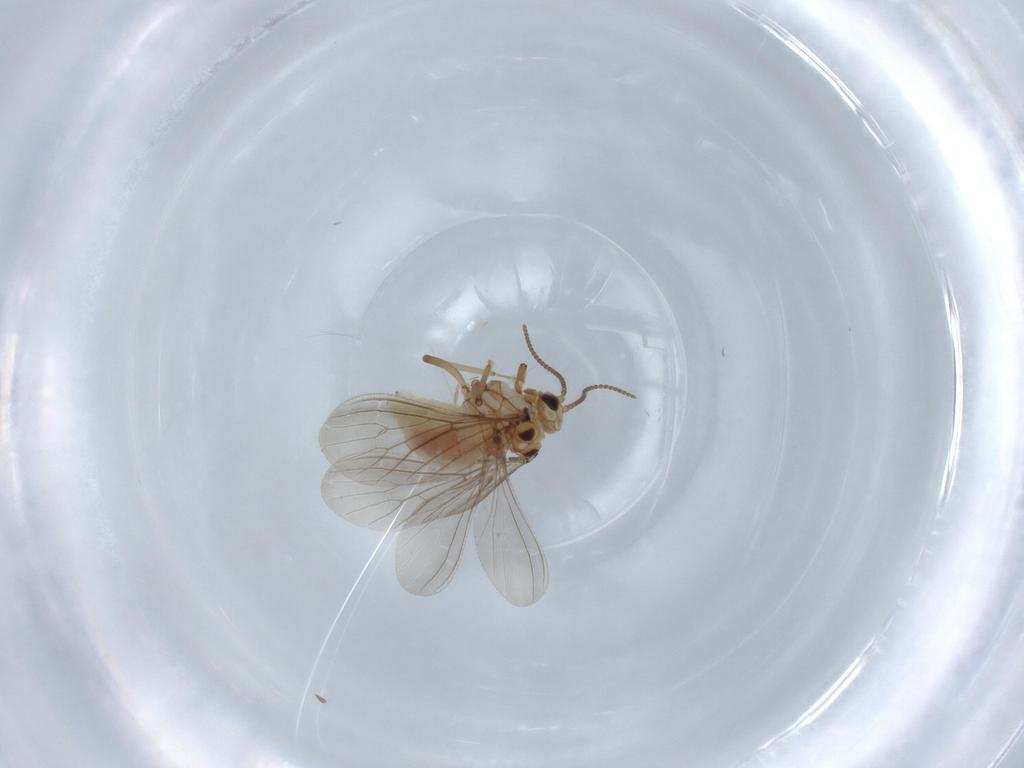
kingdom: Animalia
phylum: Arthropoda
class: Insecta
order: Neuroptera
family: Coniopterygidae
